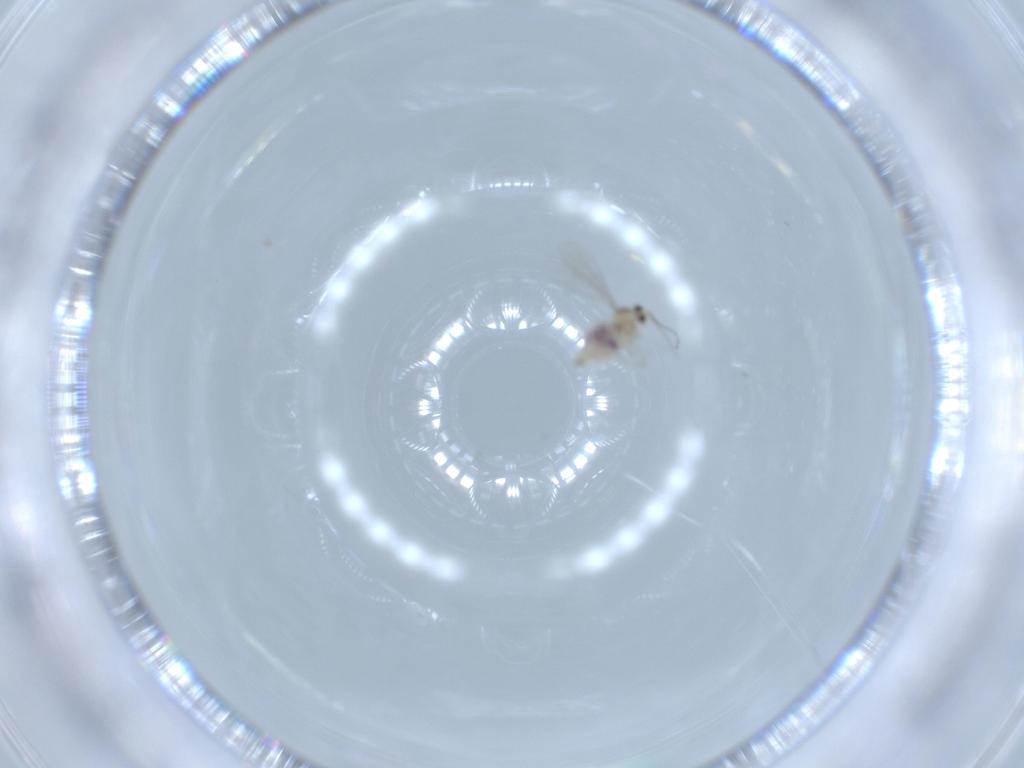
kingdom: Animalia
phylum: Arthropoda
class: Insecta
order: Diptera
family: Cecidomyiidae
